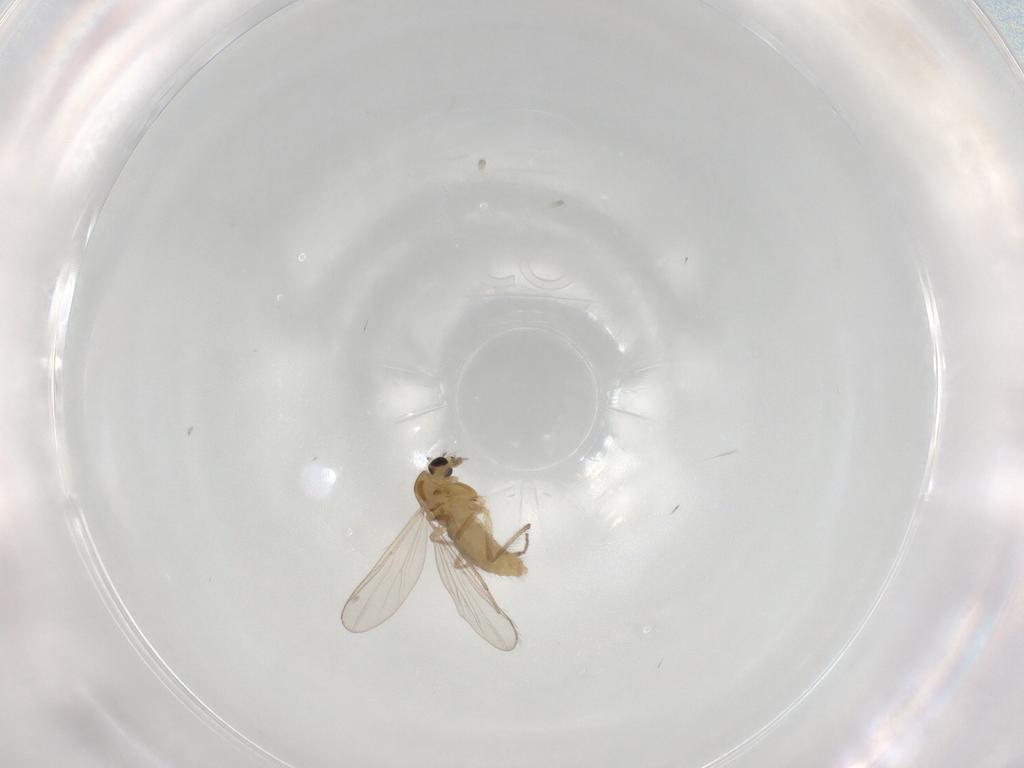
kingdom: Animalia
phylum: Arthropoda
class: Insecta
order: Diptera
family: Chironomidae
